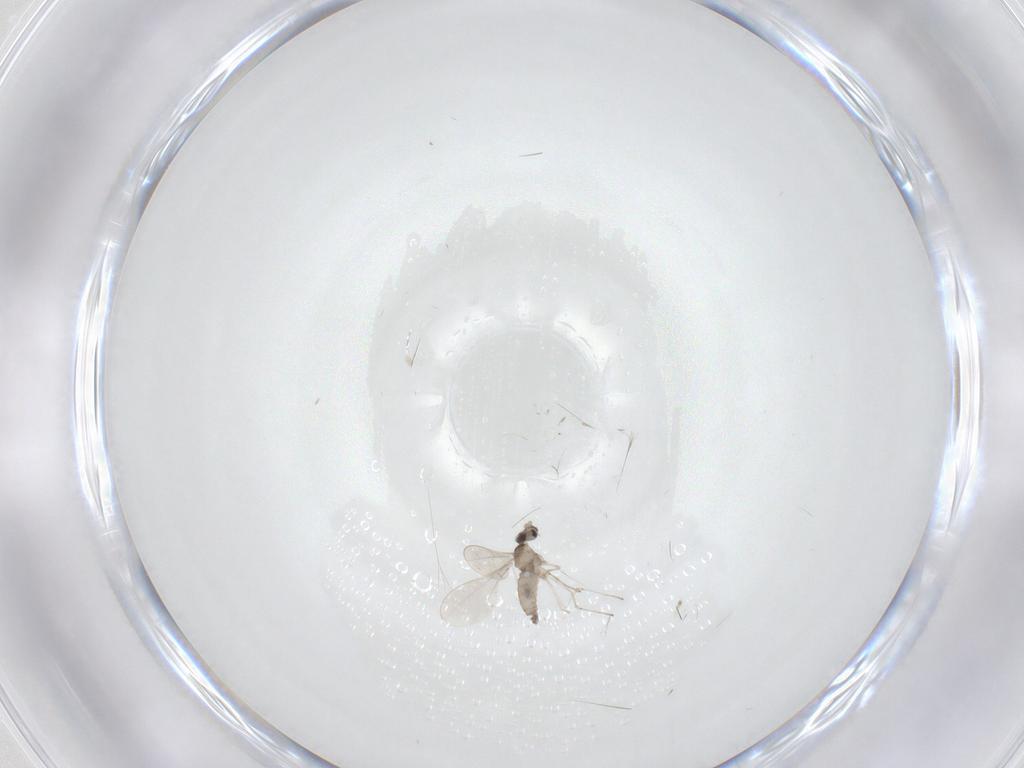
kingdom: Animalia
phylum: Arthropoda
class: Insecta
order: Diptera
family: Cecidomyiidae
